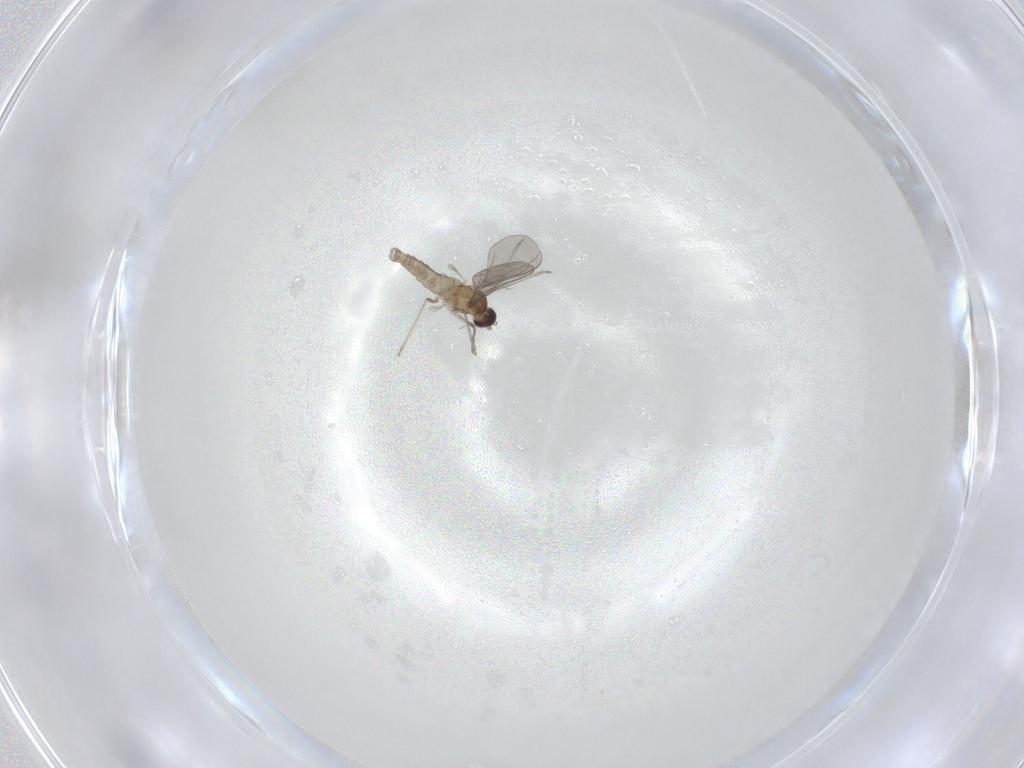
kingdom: Animalia
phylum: Arthropoda
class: Insecta
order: Diptera
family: Cecidomyiidae
